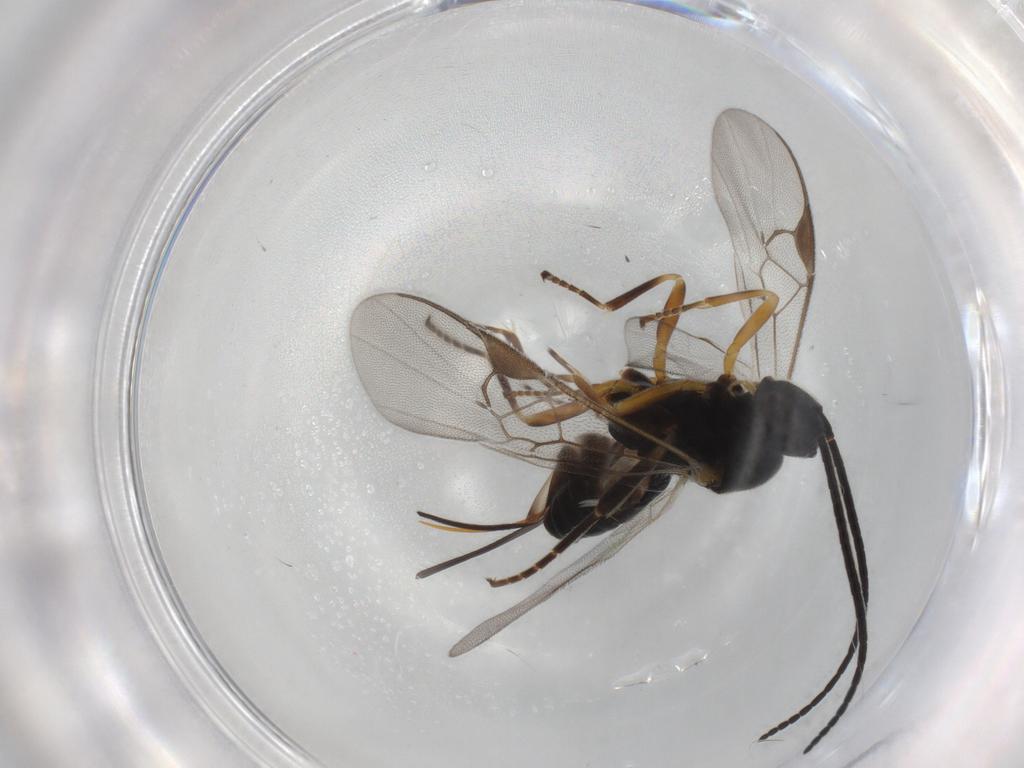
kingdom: Animalia
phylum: Arthropoda
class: Insecta
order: Hymenoptera
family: Braconidae
